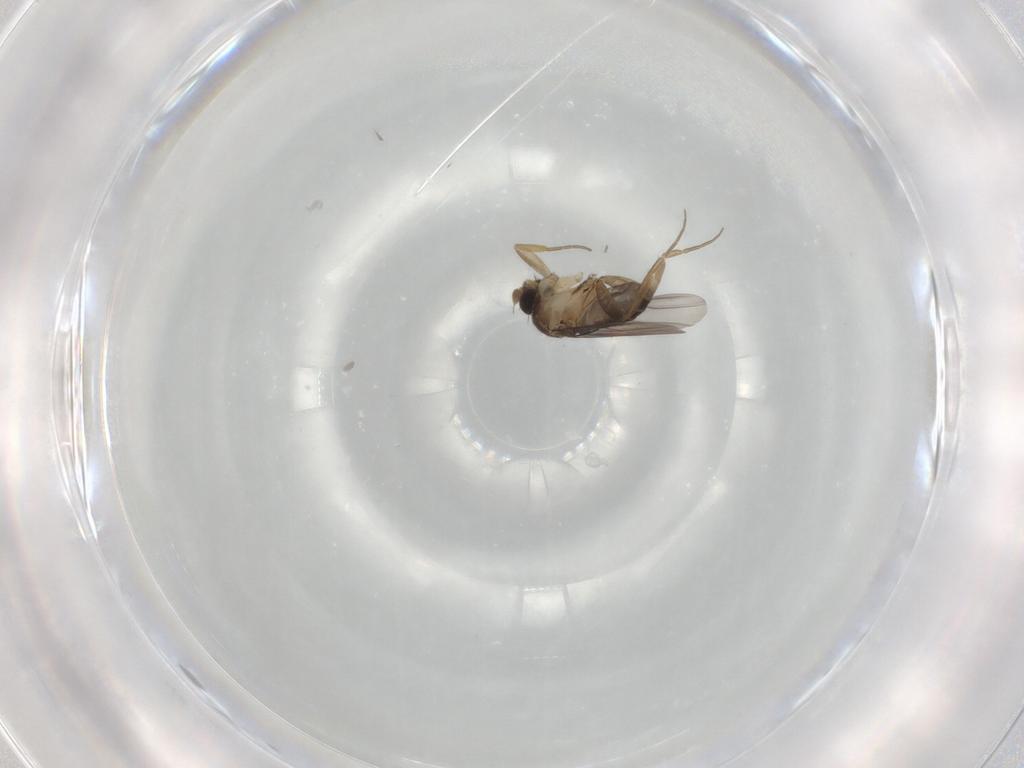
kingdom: Animalia
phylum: Arthropoda
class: Insecta
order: Diptera
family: Phoridae
